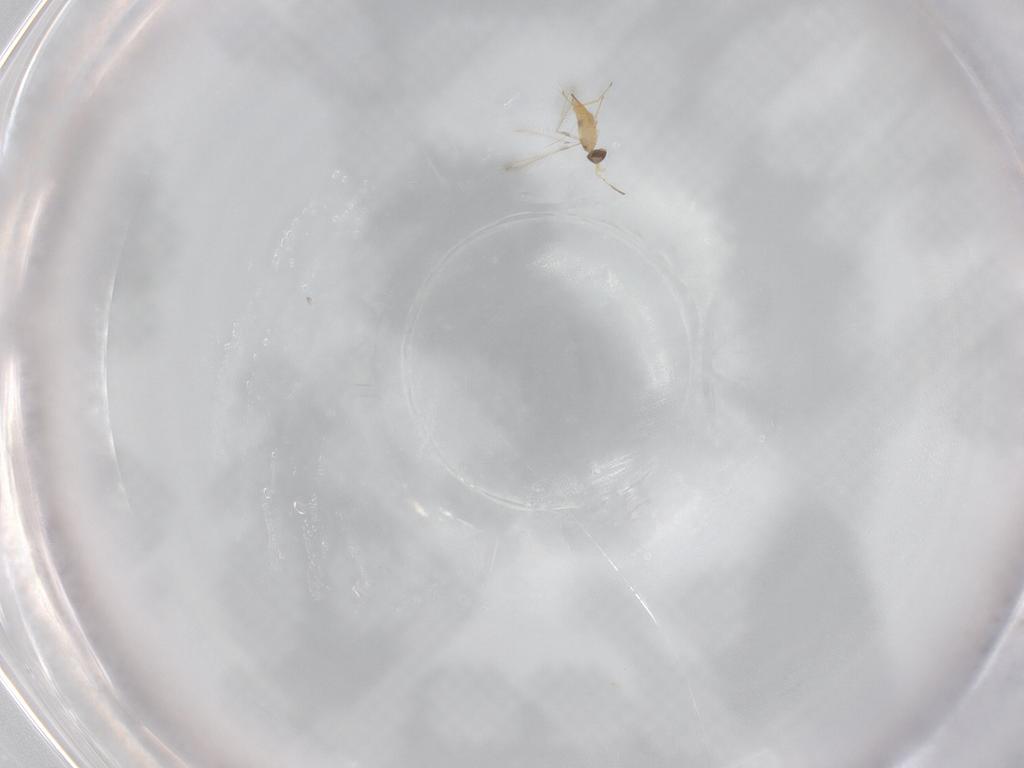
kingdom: Animalia
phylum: Arthropoda
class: Insecta
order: Hymenoptera
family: Mymaridae
